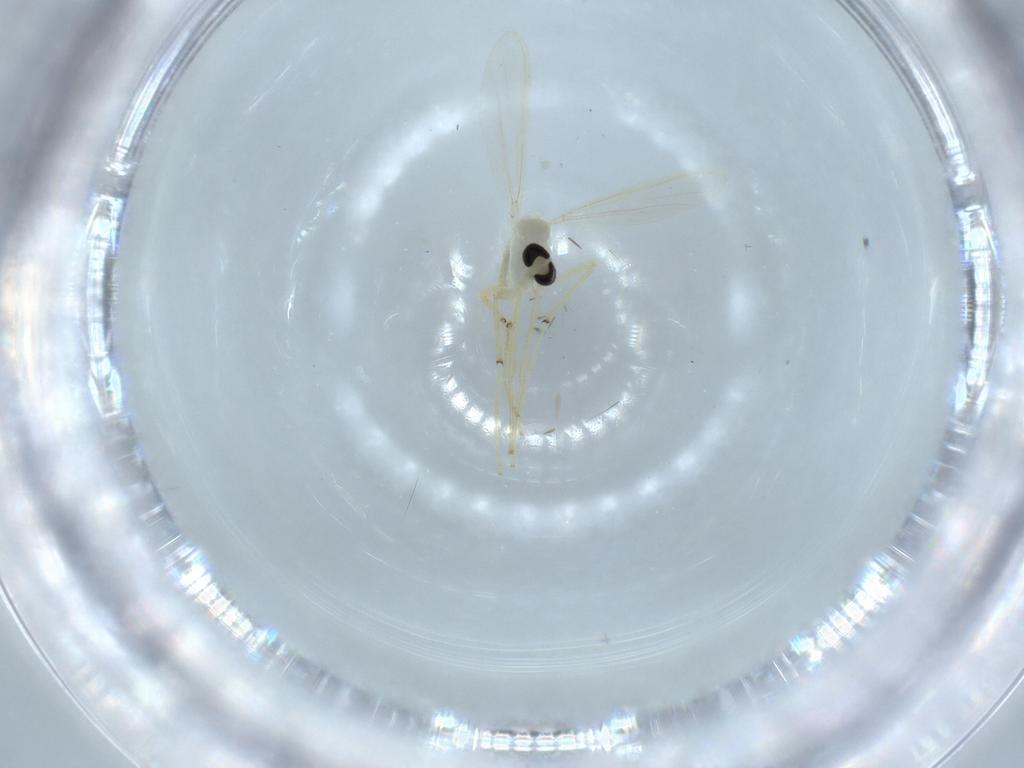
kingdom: Animalia
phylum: Arthropoda
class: Insecta
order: Diptera
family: Chironomidae
